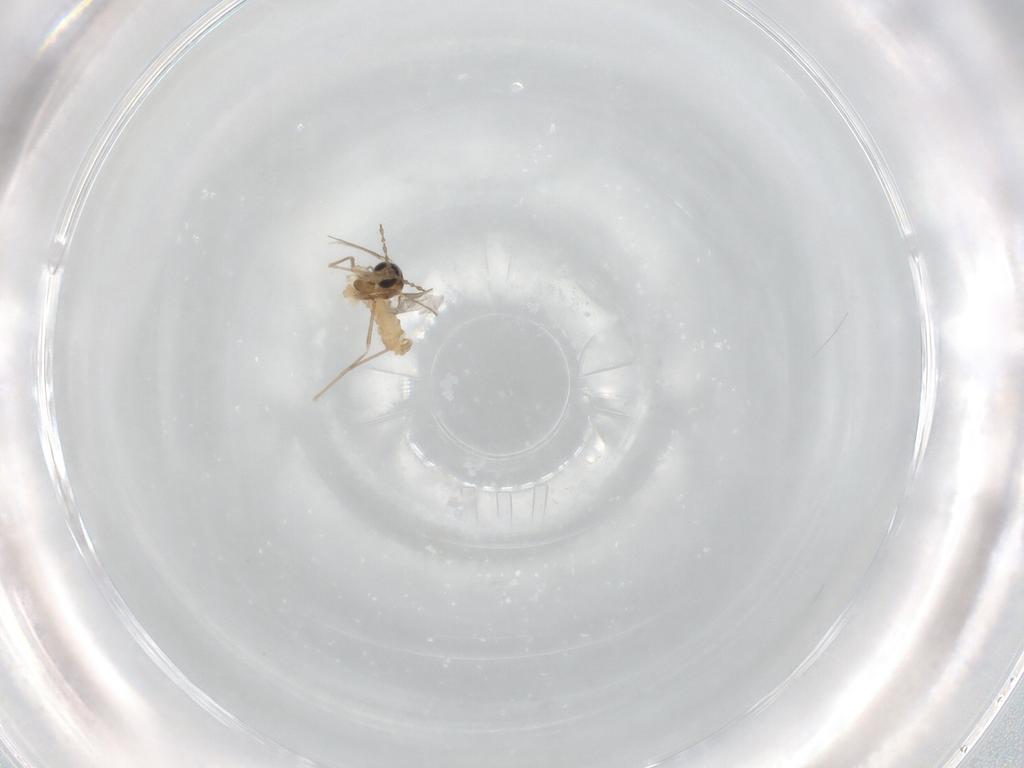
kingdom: Animalia
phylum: Arthropoda
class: Insecta
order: Diptera
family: Cecidomyiidae
